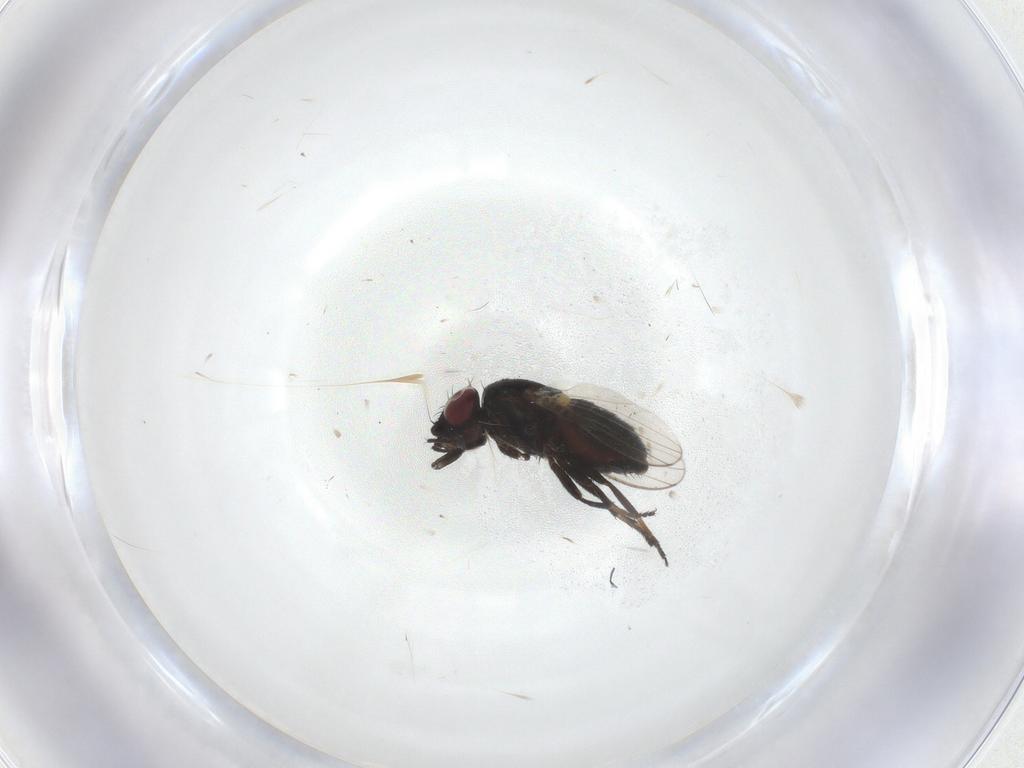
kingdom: Animalia
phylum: Arthropoda
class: Insecta
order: Diptera
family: Milichiidae
